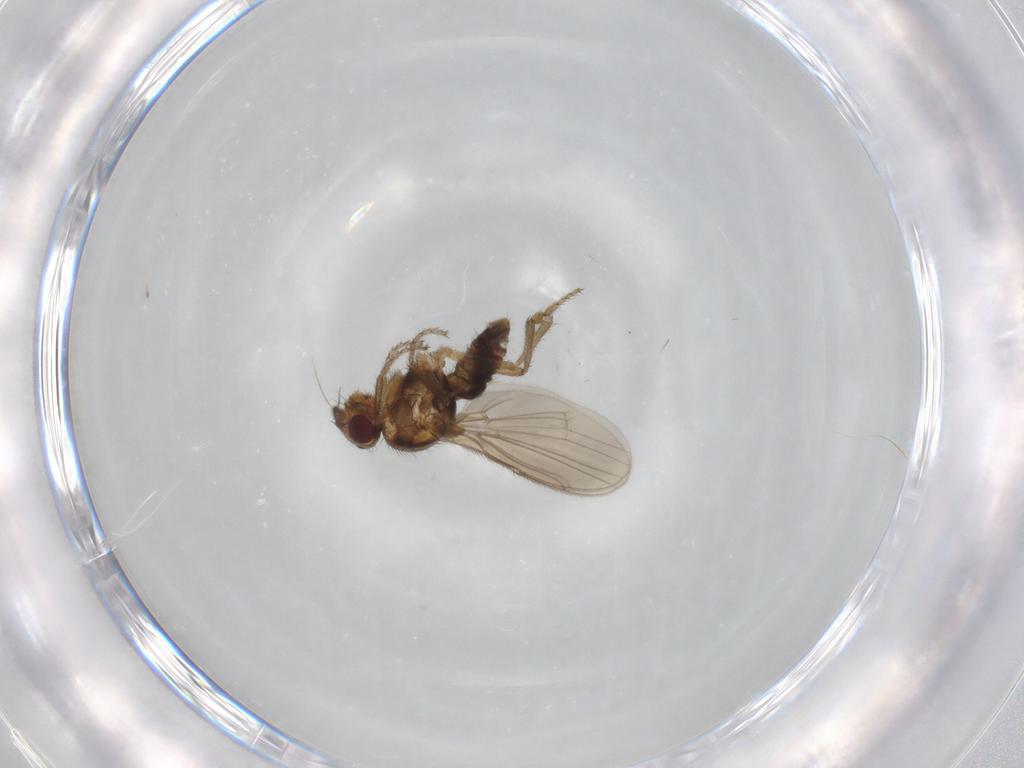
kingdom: Animalia
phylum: Arthropoda
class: Insecta
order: Diptera
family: Sphaeroceridae
